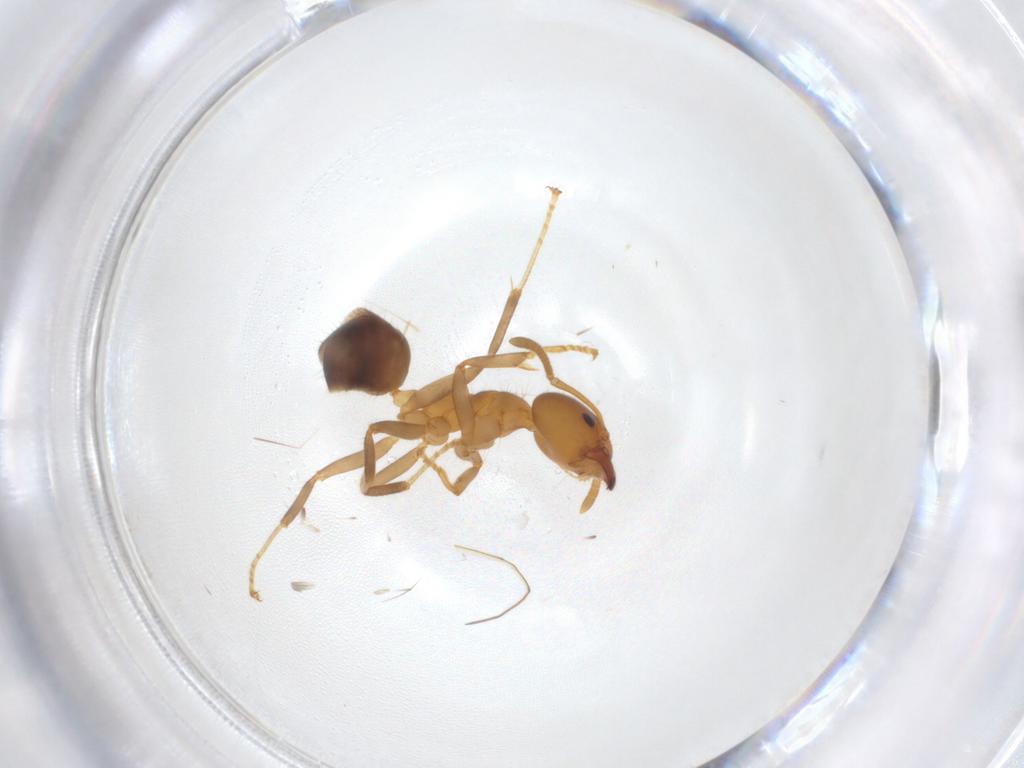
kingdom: Animalia
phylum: Arthropoda
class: Insecta
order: Hymenoptera
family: Formicidae
